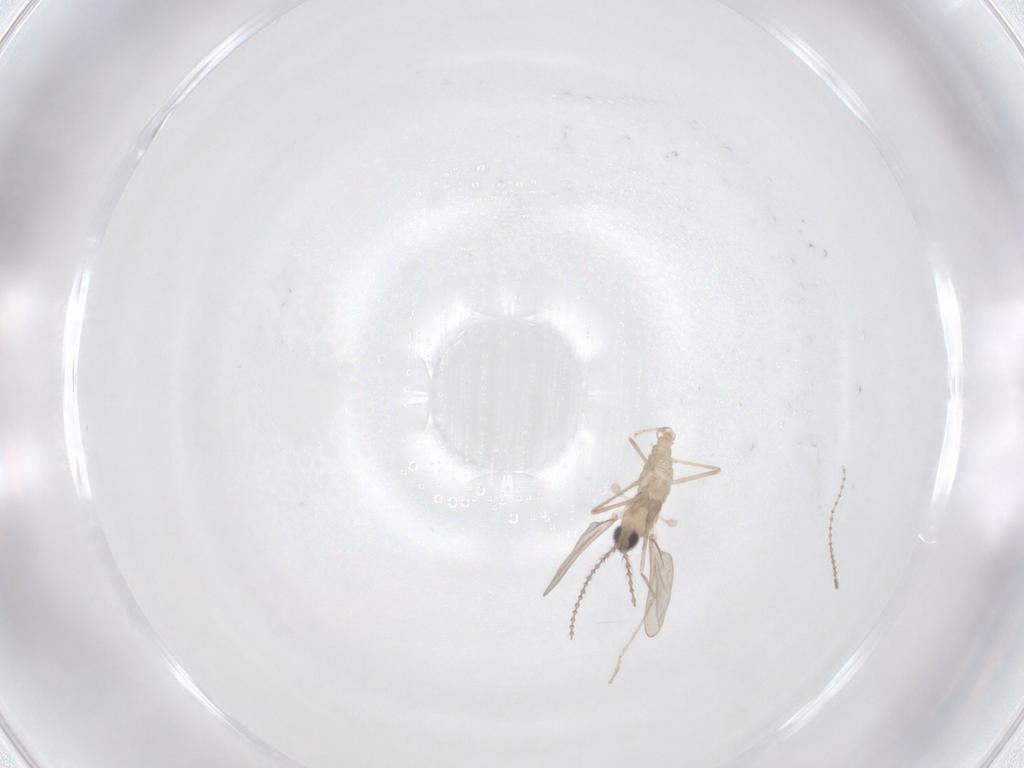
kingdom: Animalia
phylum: Arthropoda
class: Insecta
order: Diptera
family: Cecidomyiidae
